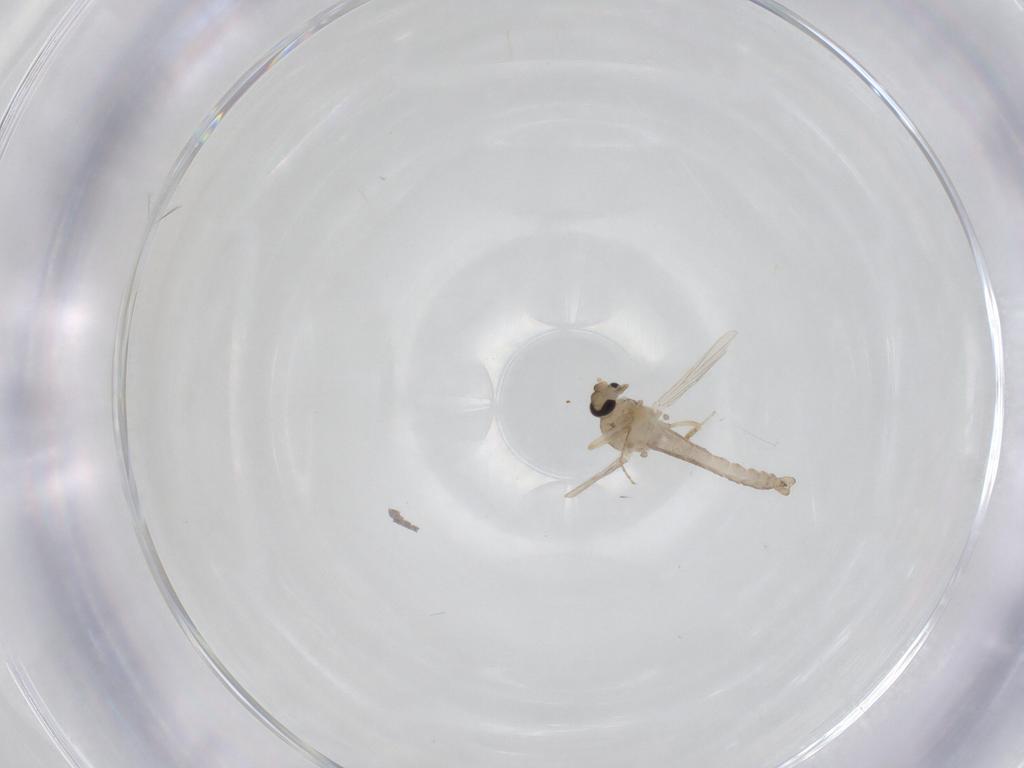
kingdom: Animalia
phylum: Arthropoda
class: Insecta
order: Diptera
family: Ceratopogonidae
